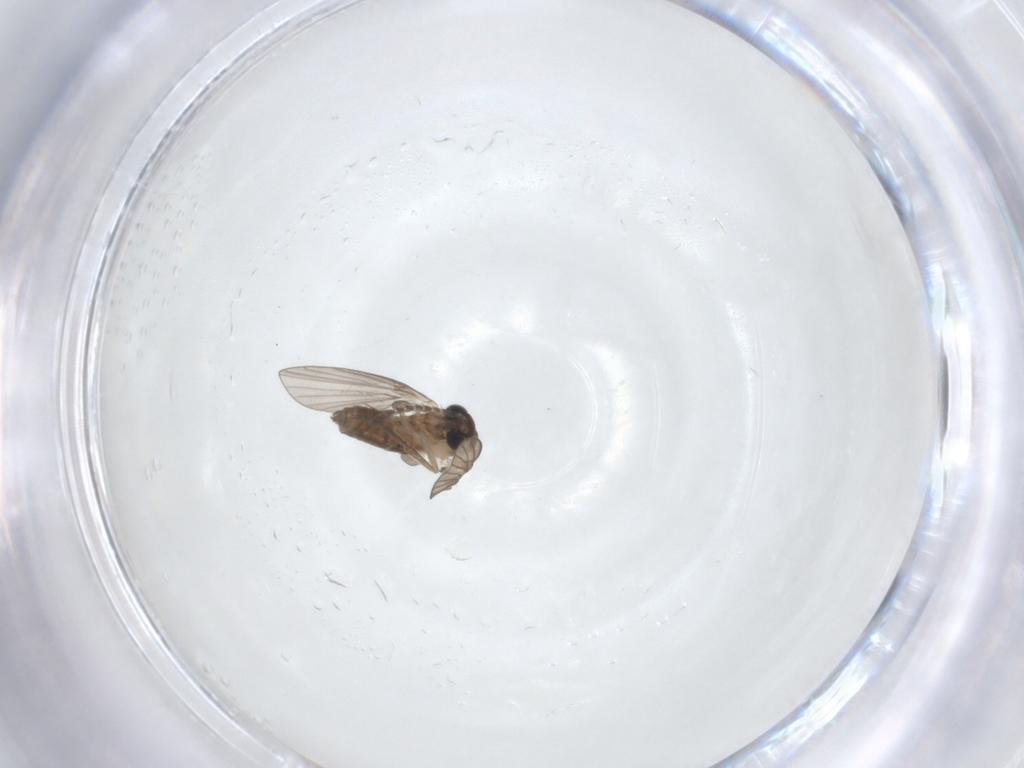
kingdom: Animalia
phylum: Arthropoda
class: Insecta
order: Diptera
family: Chironomidae
